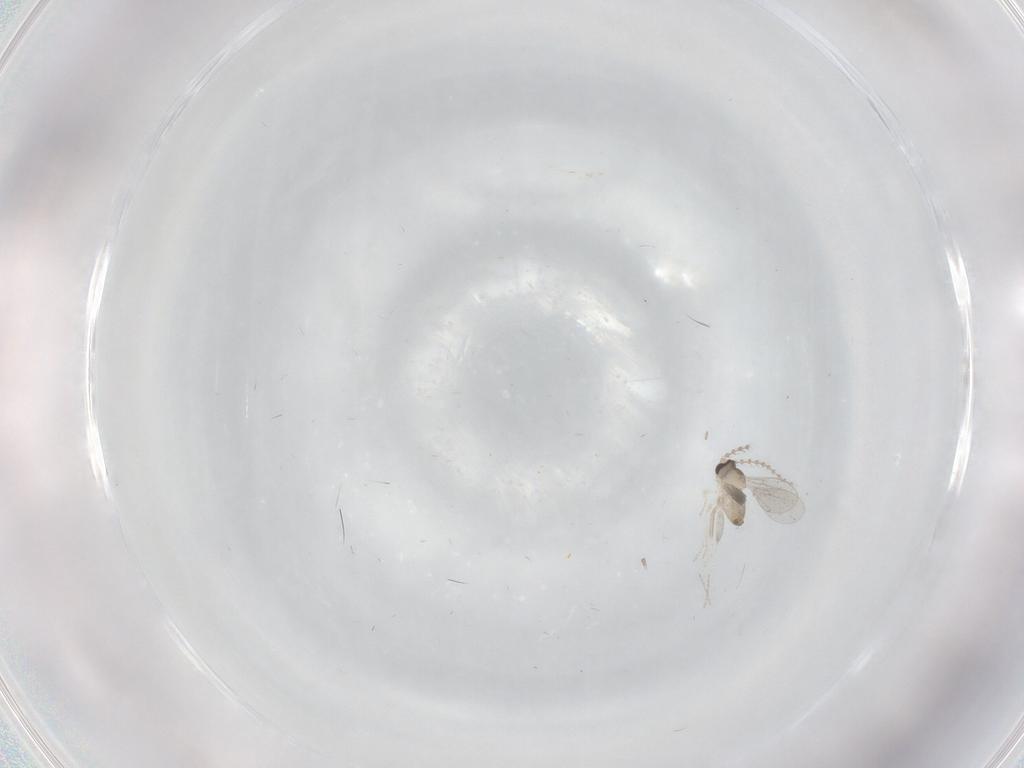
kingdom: Animalia
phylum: Arthropoda
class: Insecta
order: Diptera
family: Cecidomyiidae
